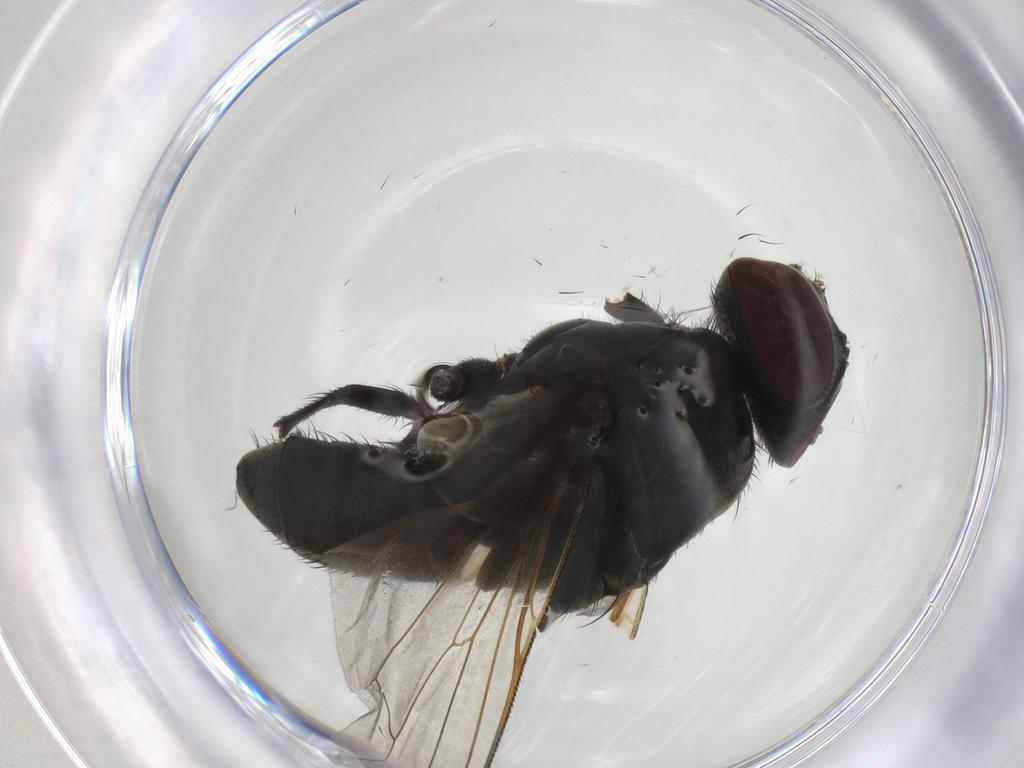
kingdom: Animalia
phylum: Arthropoda
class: Insecta
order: Diptera
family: Muscidae
